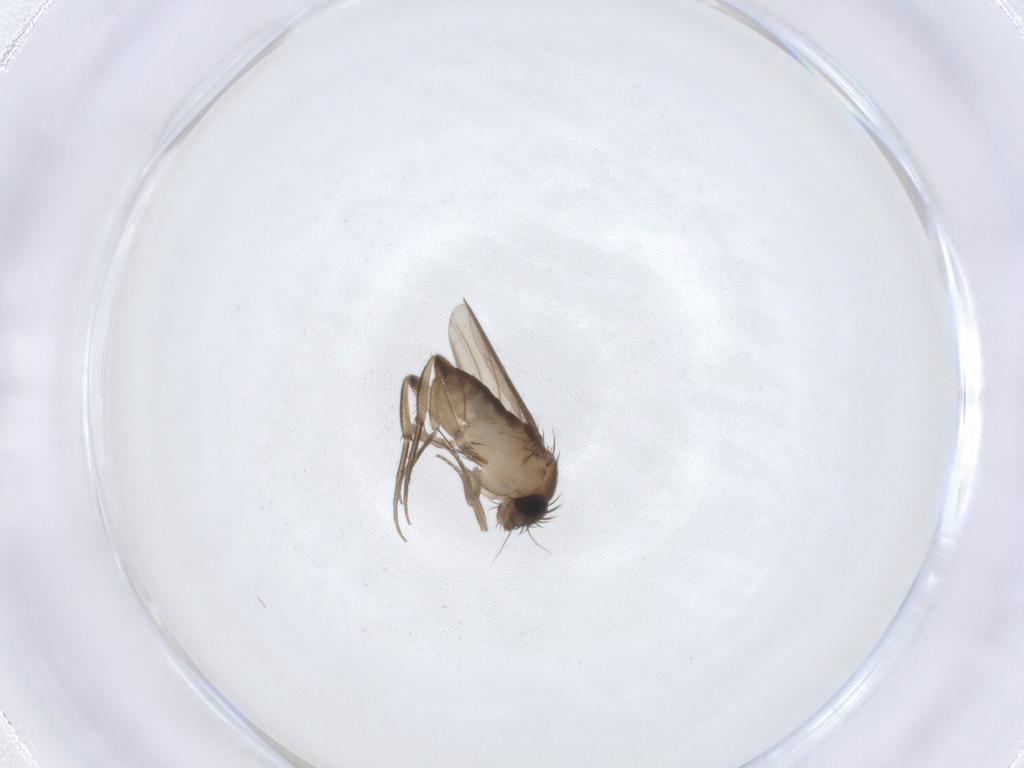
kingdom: Animalia
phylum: Arthropoda
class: Insecta
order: Diptera
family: Phoridae
